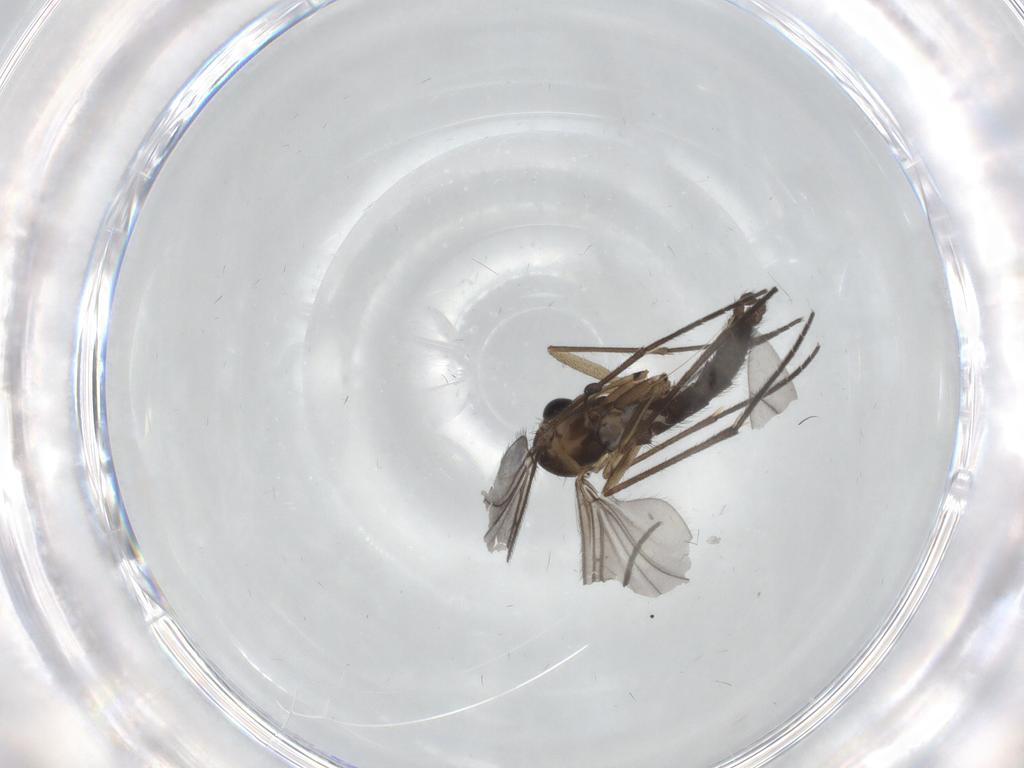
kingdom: Animalia
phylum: Arthropoda
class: Insecta
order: Diptera
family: Sciaridae
